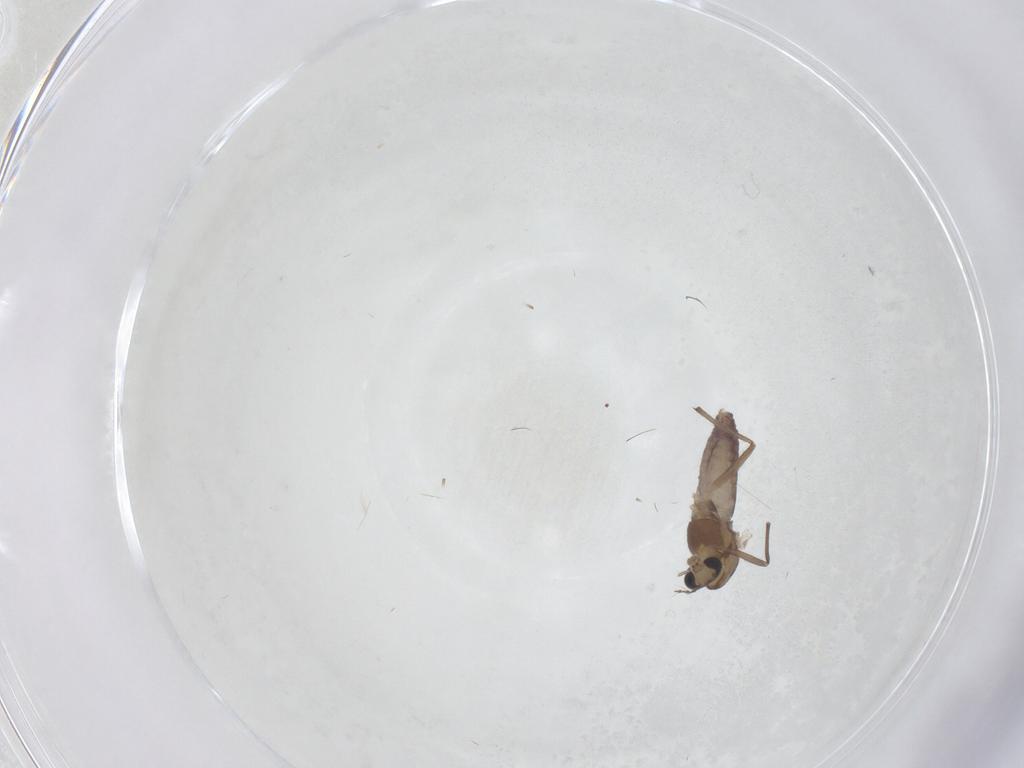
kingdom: Animalia
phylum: Arthropoda
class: Insecta
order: Diptera
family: Chironomidae
